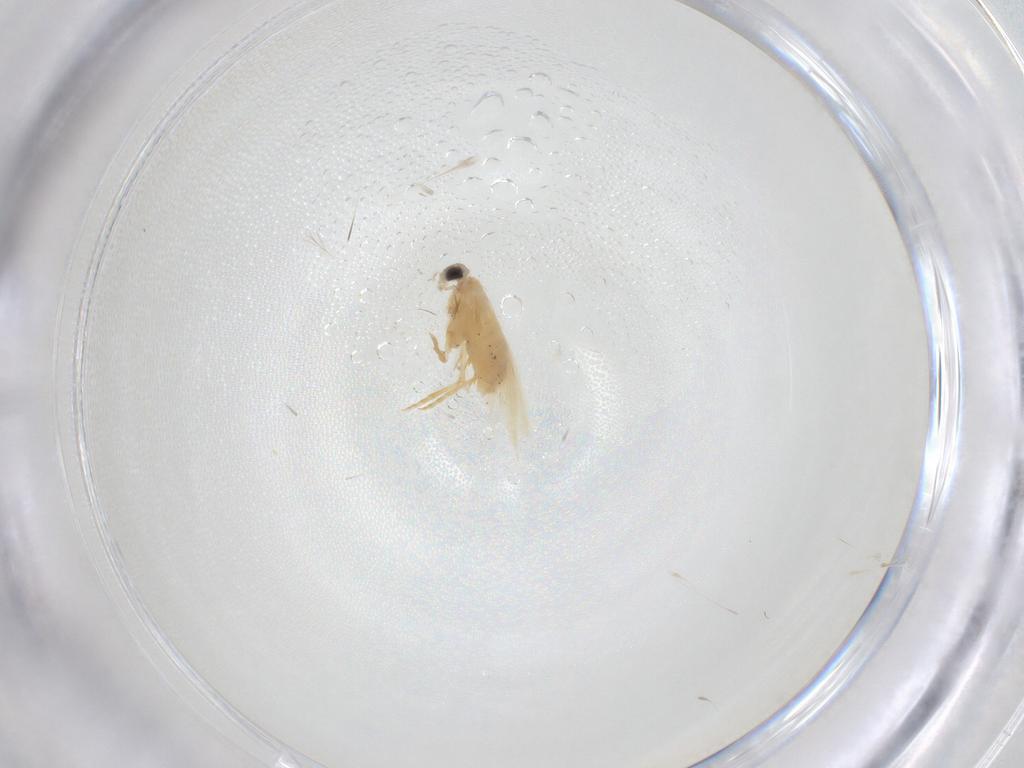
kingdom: Animalia
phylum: Arthropoda
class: Insecta
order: Lepidoptera
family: Nepticulidae
